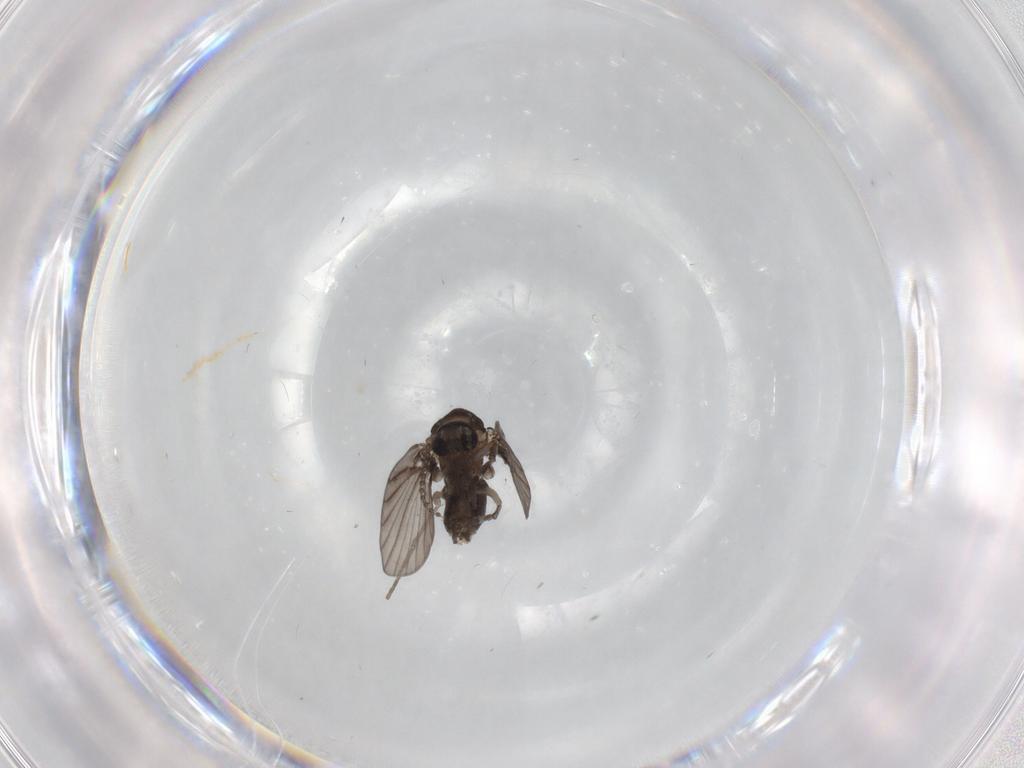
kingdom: Animalia
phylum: Arthropoda
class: Insecta
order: Diptera
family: Psychodidae
